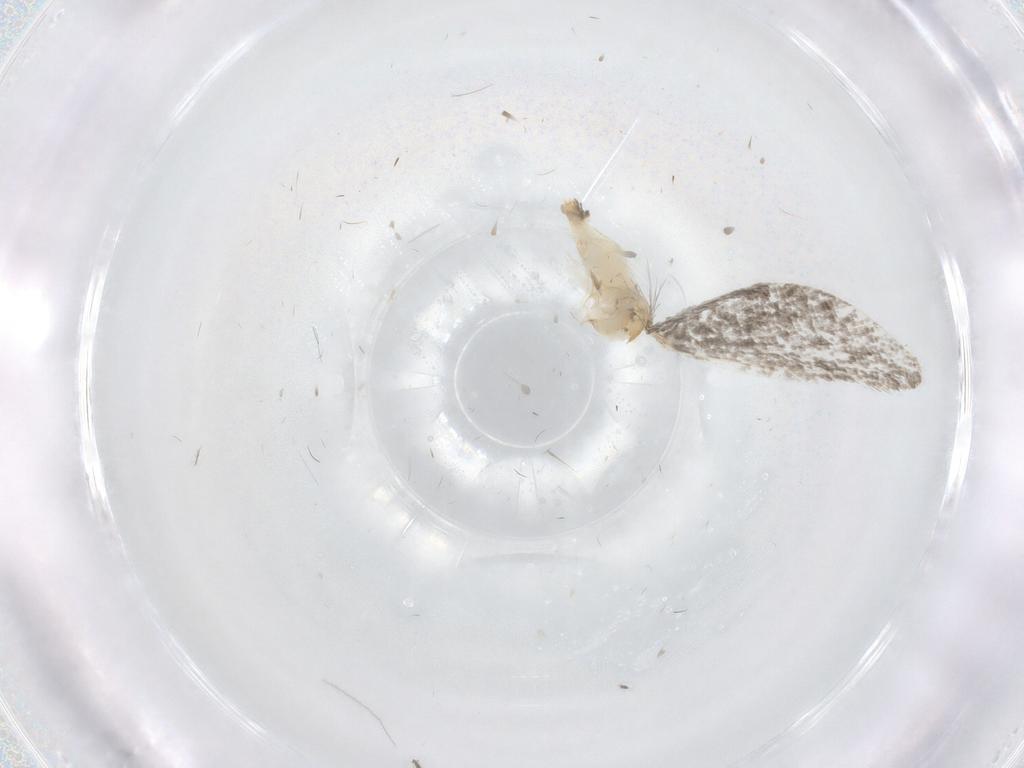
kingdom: Animalia
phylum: Arthropoda
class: Insecta
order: Lepidoptera
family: Tineidae
